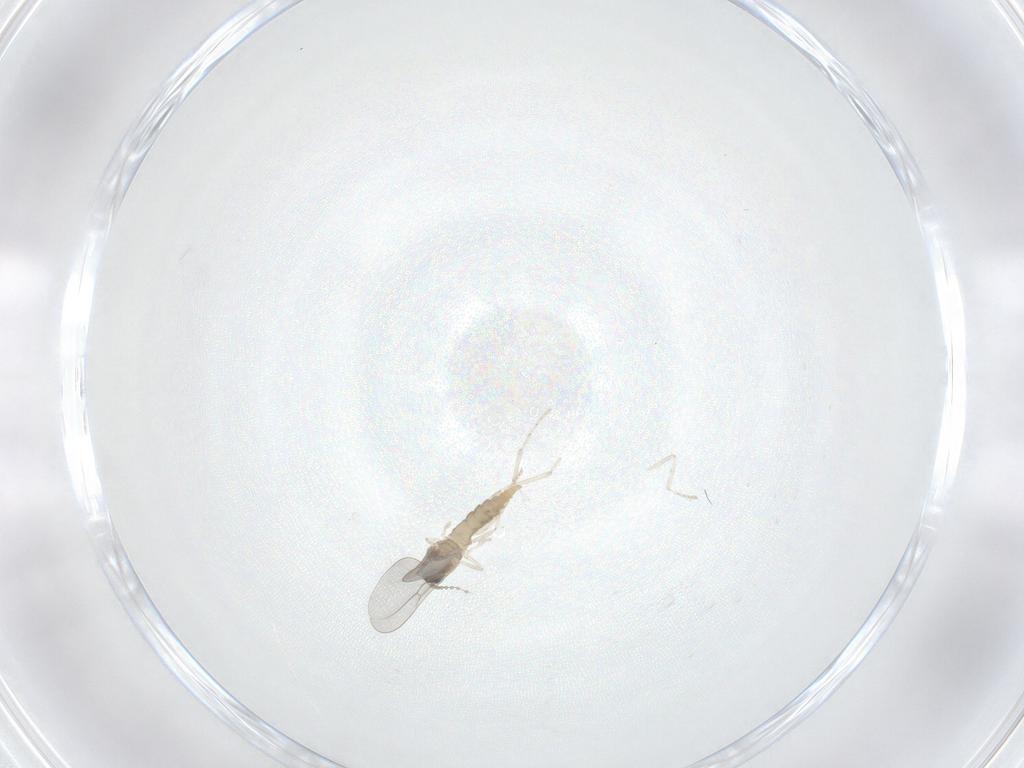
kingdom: Animalia
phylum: Arthropoda
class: Insecta
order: Diptera
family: Cecidomyiidae
